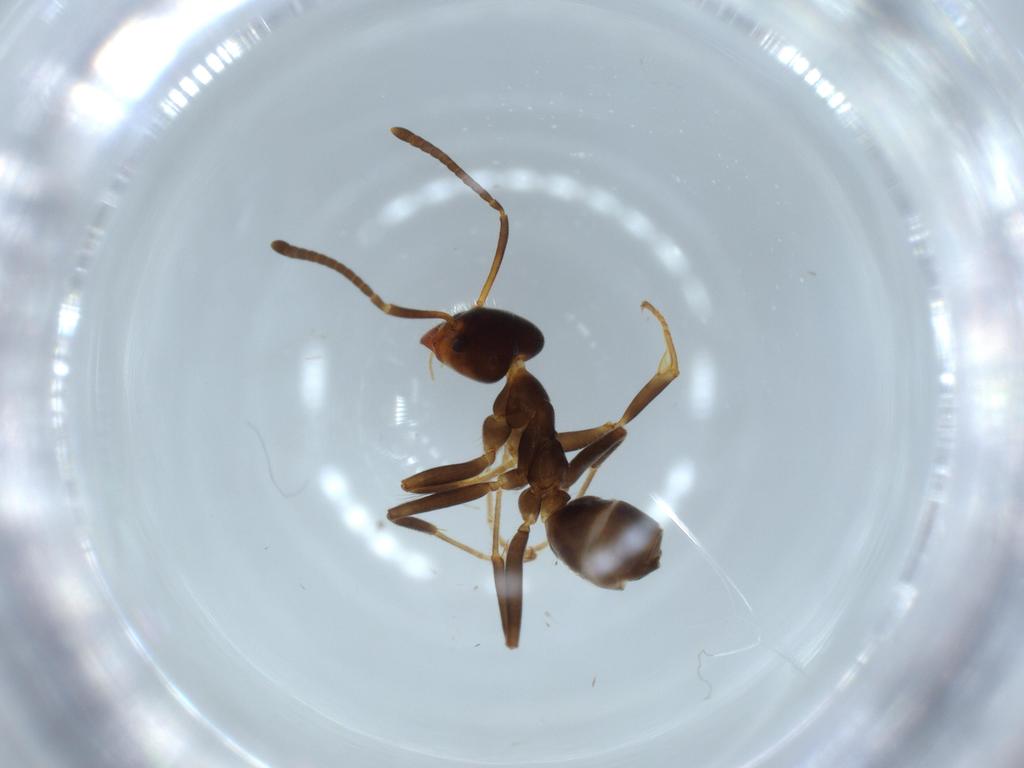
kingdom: Animalia
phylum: Arthropoda
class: Insecta
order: Hymenoptera
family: Formicidae
